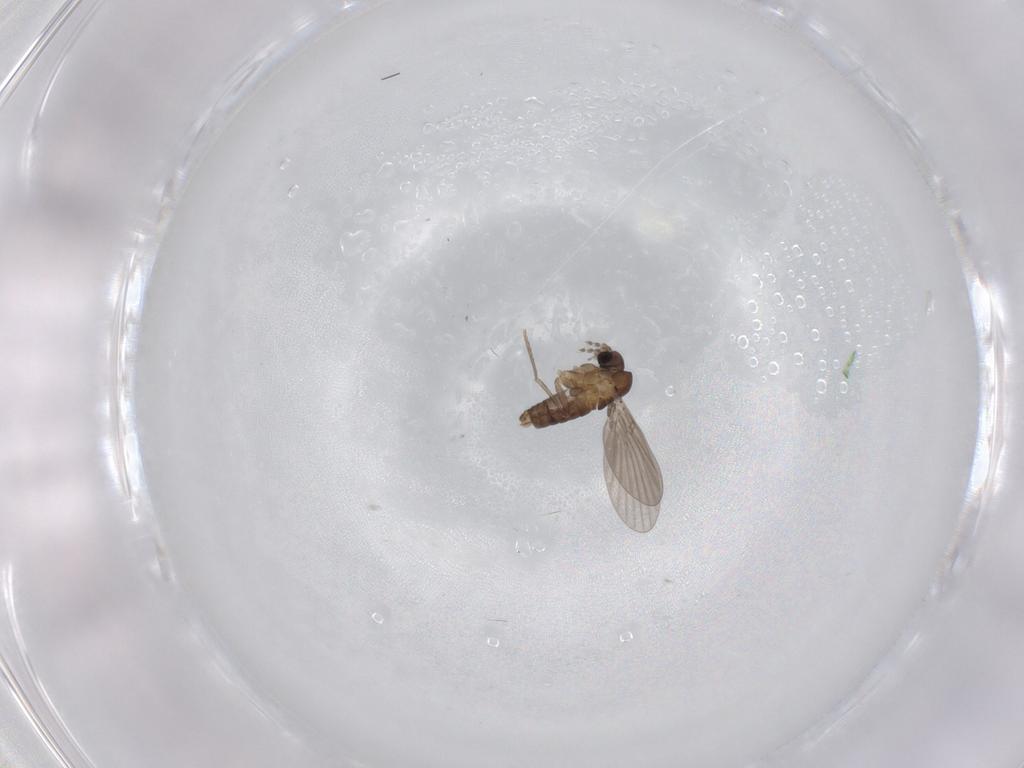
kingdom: Animalia
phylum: Arthropoda
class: Insecta
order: Diptera
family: Phoridae
